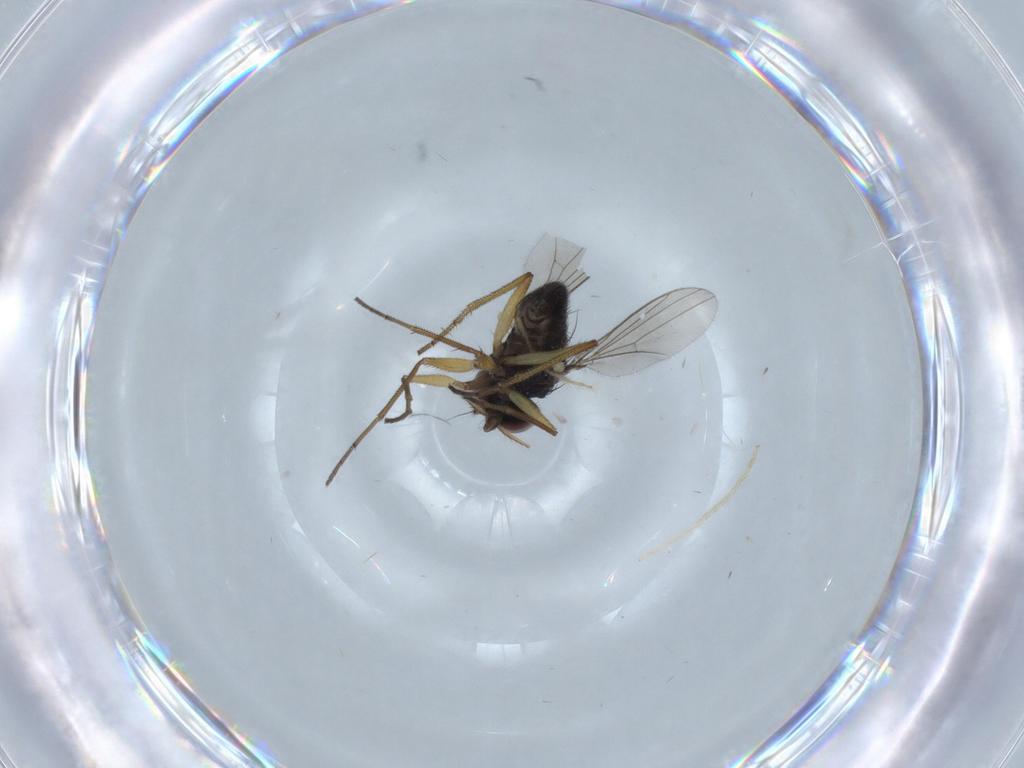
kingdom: Animalia
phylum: Arthropoda
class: Insecta
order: Diptera
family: Dolichopodidae
